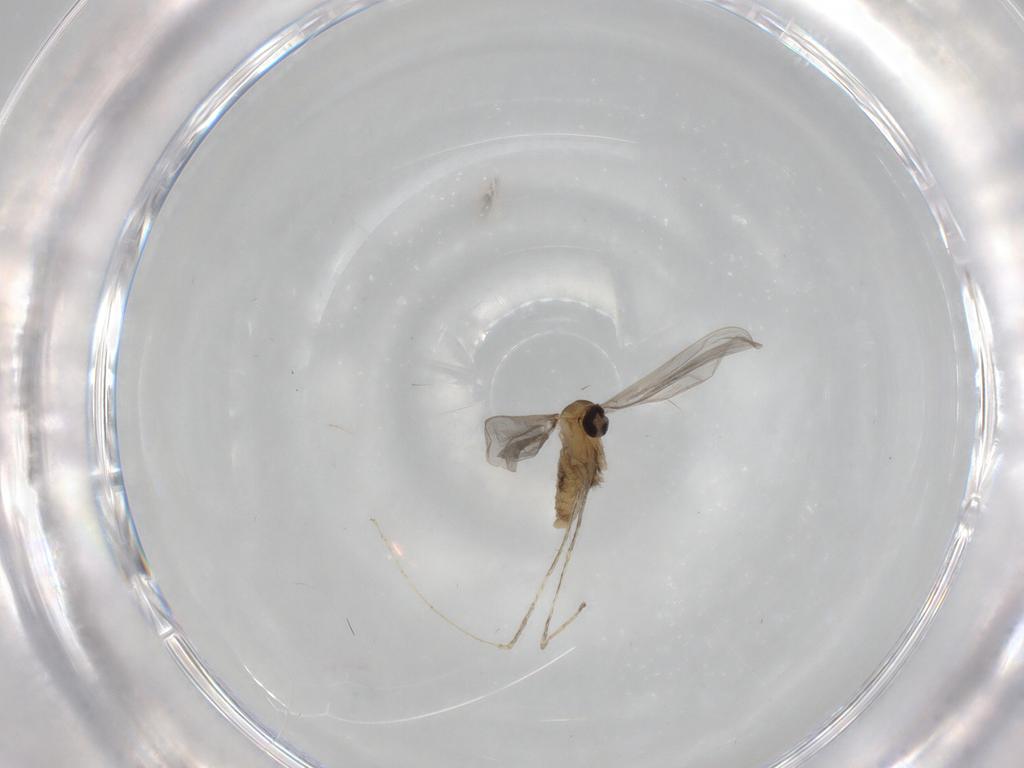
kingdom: Animalia
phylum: Arthropoda
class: Insecta
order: Diptera
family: Cecidomyiidae
